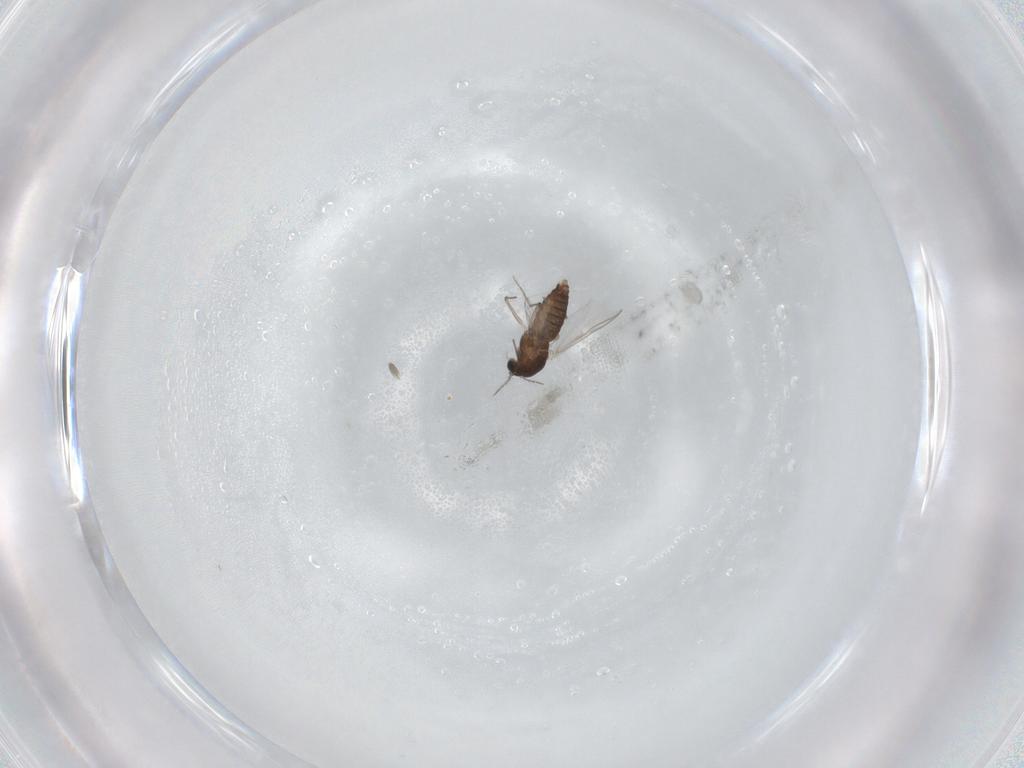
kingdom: Animalia
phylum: Arthropoda
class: Insecta
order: Diptera
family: Chironomidae
